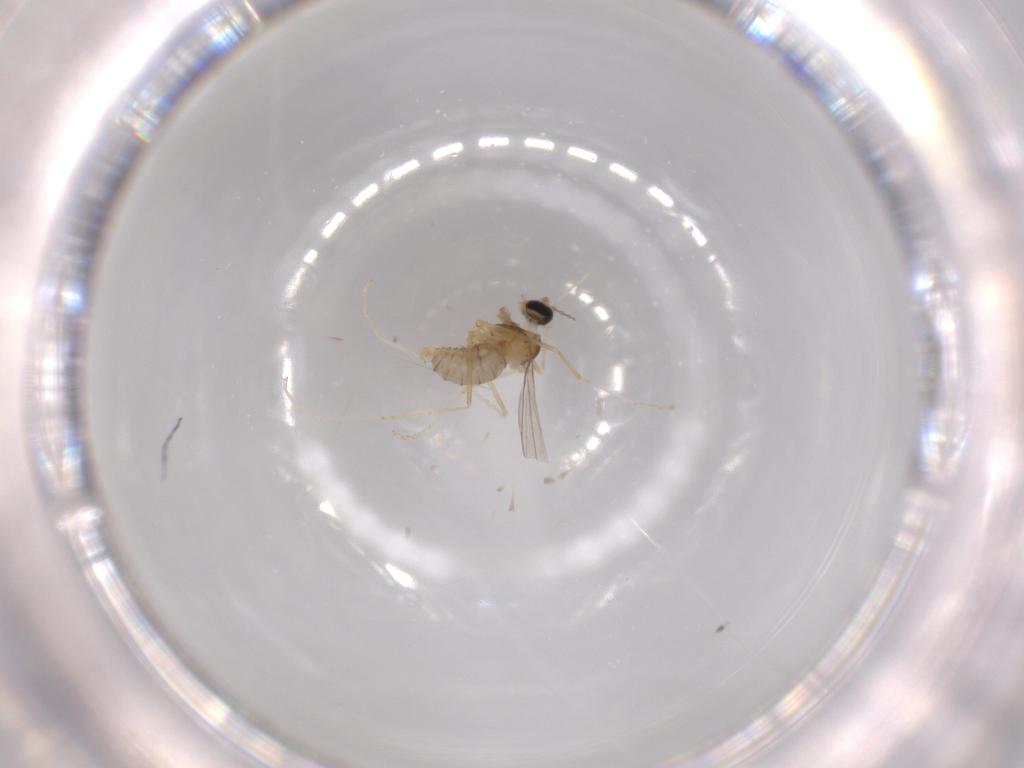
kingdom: Animalia
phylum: Arthropoda
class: Insecta
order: Diptera
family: Cecidomyiidae
